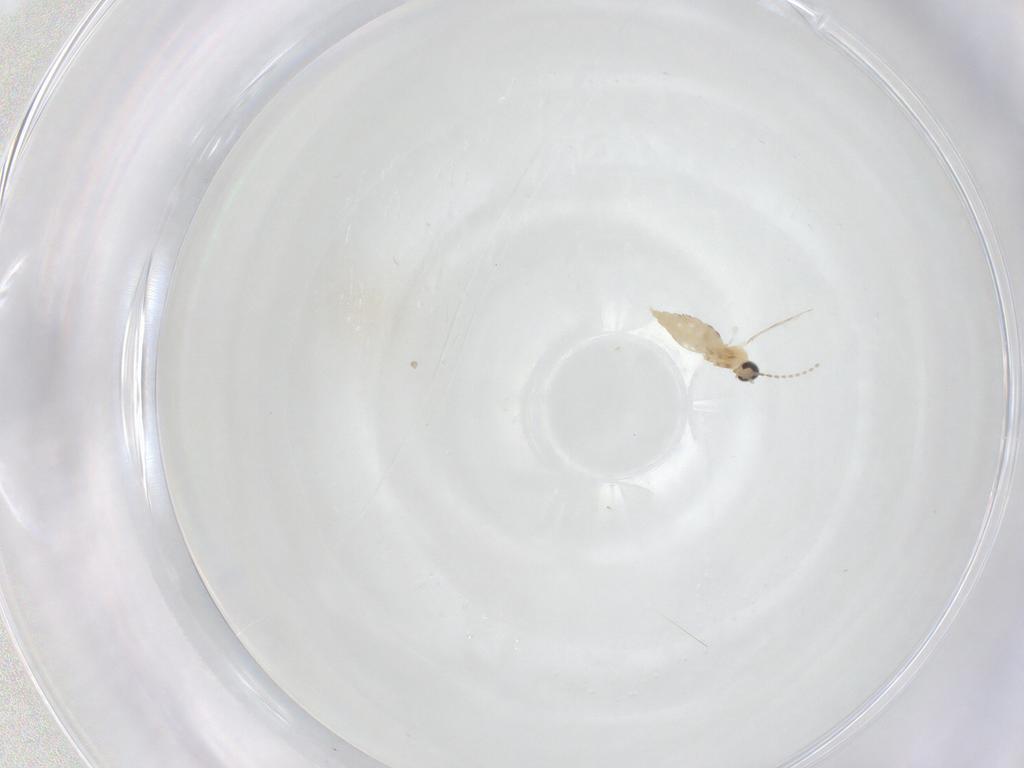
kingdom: Animalia
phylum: Arthropoda
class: Insecta
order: Diptera
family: Cecidomyiidae
